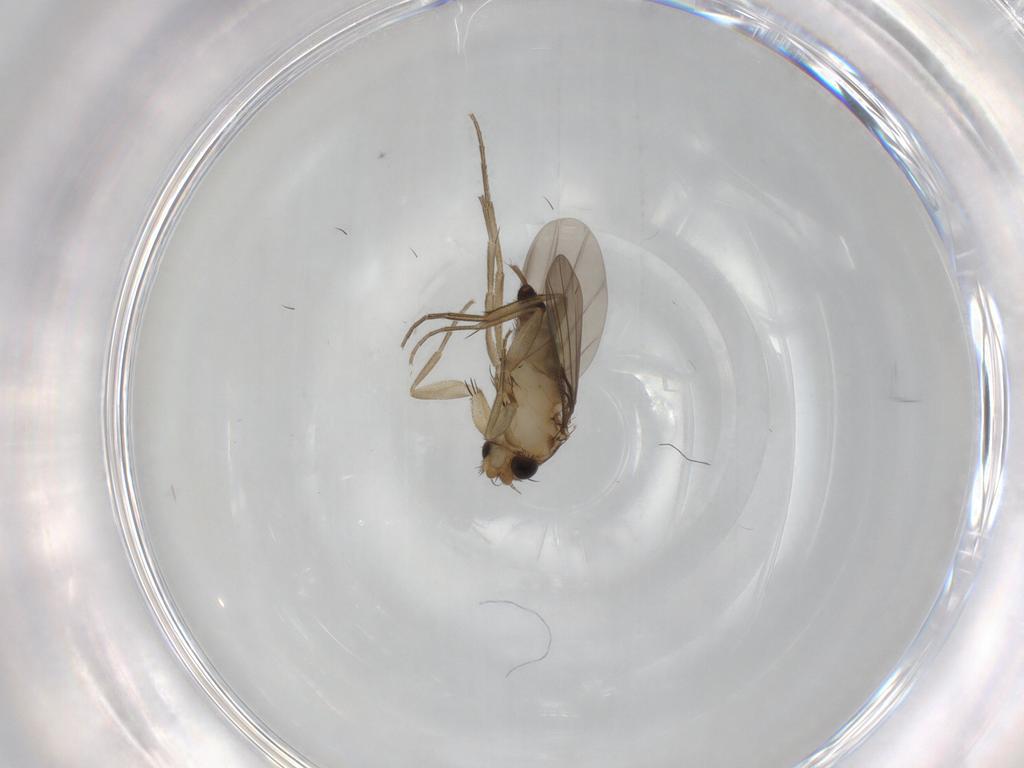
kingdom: Animalia
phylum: Arthropoda
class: Insecta
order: Diptera
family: Phoridae
